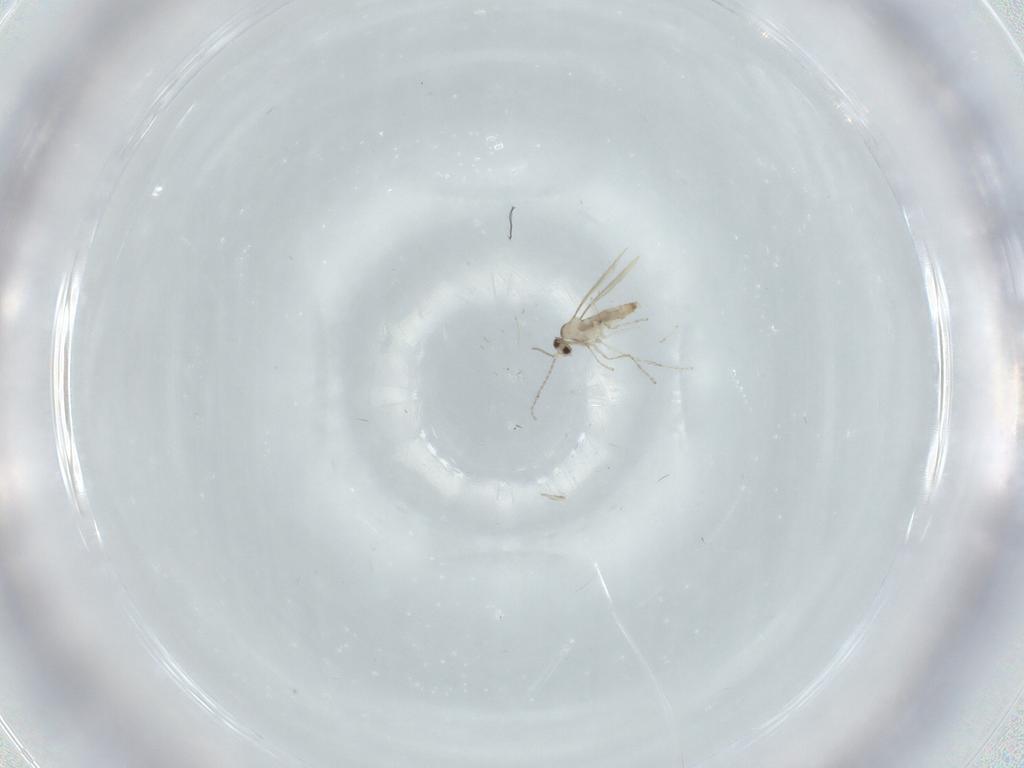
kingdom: Animalia
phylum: Arthropoda
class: Insecta
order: Diptera
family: Cecidomyiidae
